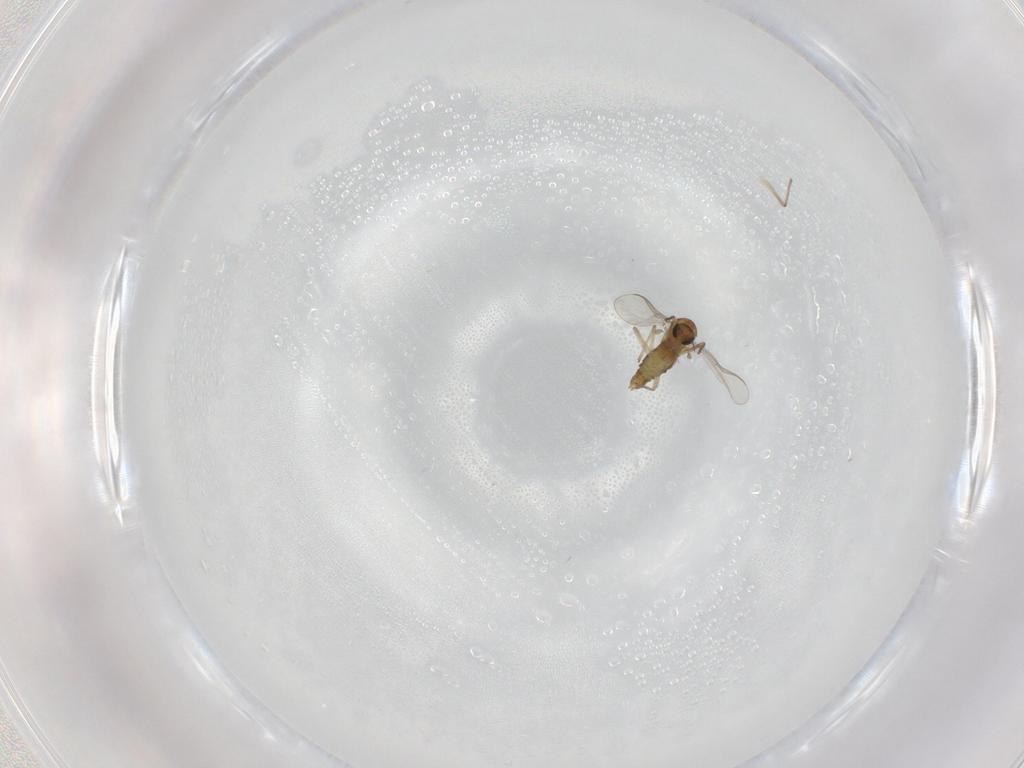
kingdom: Animalia
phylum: Arthropoda
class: Insecta
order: Diptera
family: Chironomidae
